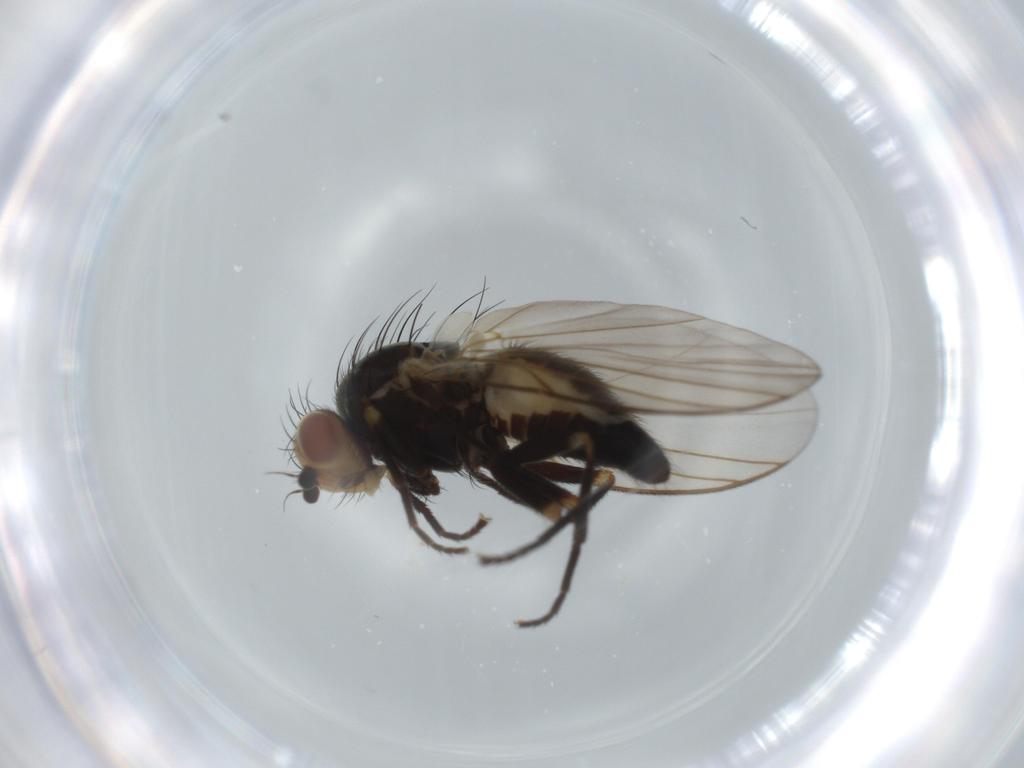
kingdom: Animalia
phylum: Arthropoda
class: Insecta
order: Diptera
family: Agromyzidae
